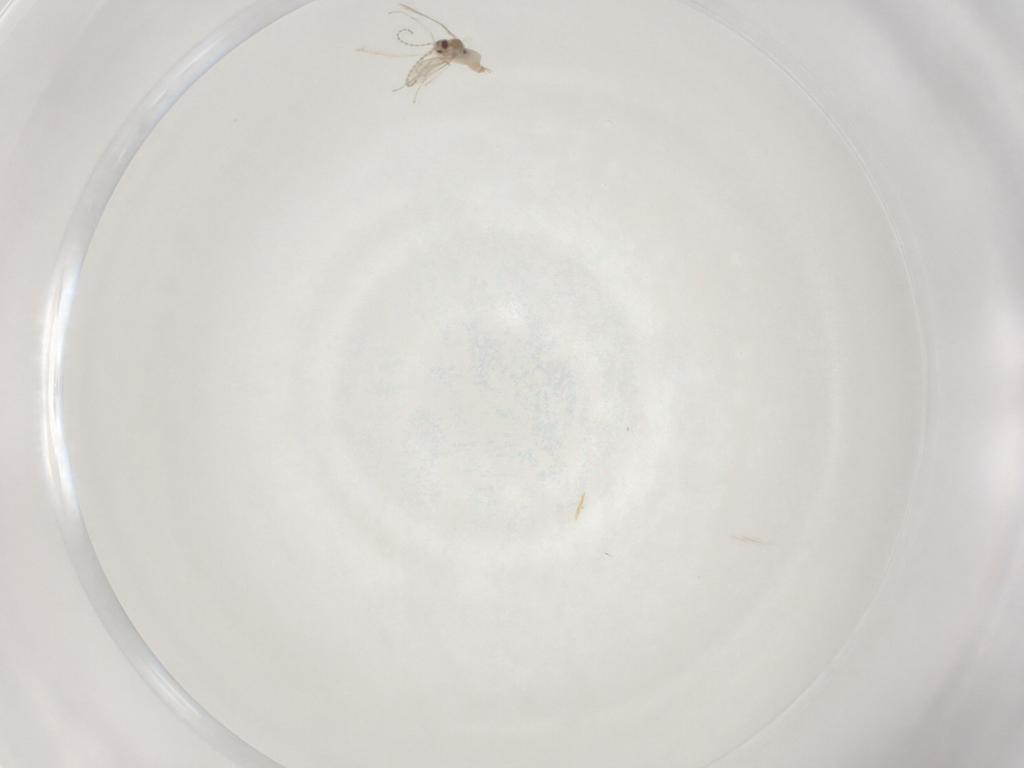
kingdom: Animalia
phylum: Arthropoda
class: Insecta
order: Diptera
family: Cecidomyiidae
